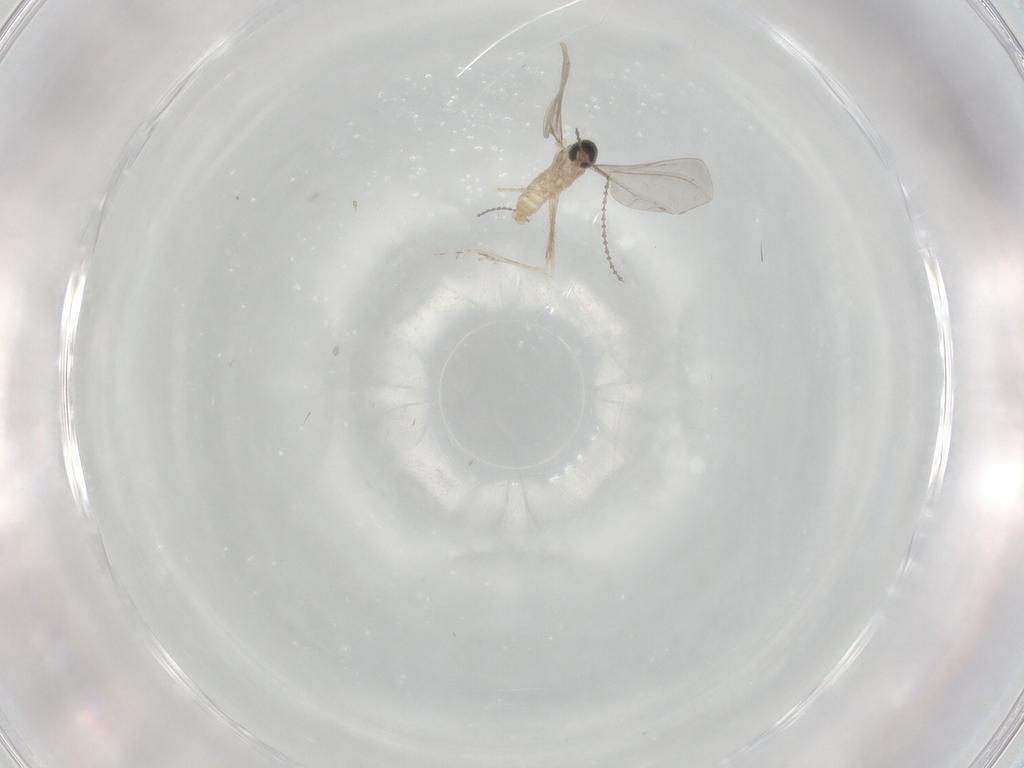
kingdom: Animalia
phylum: Arthropoda
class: Insecta
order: Diptera
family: Cecidomyiidae
